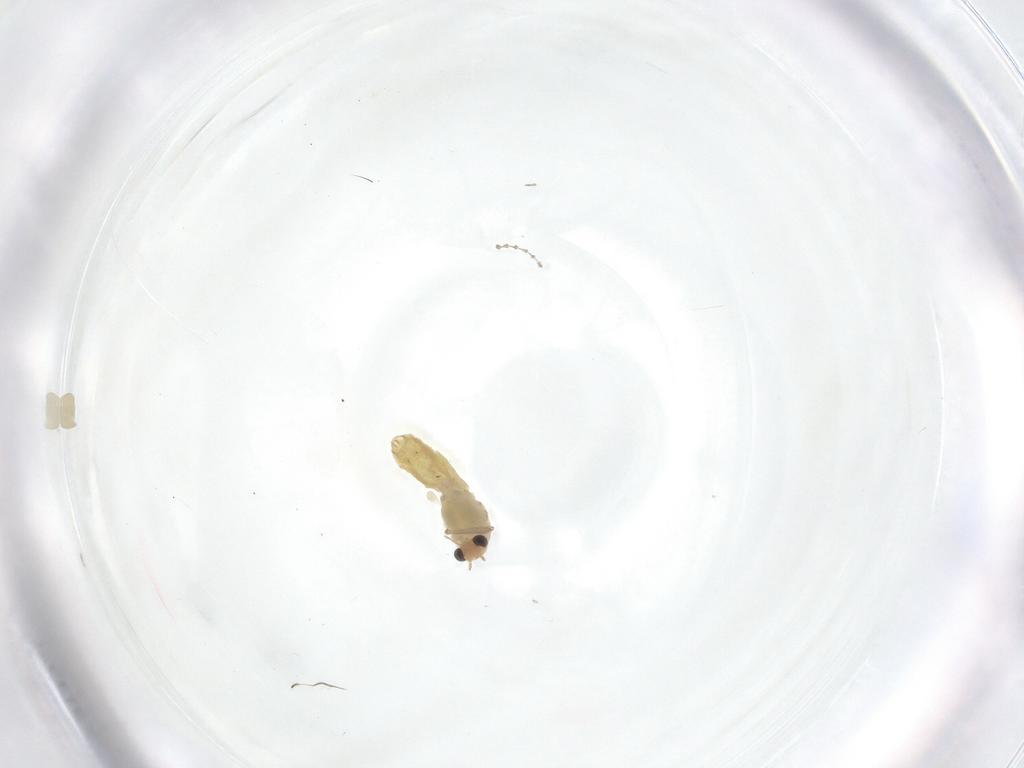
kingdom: Animalia
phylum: Arthropoda
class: Insecta
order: Diptera
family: Chironomidae
